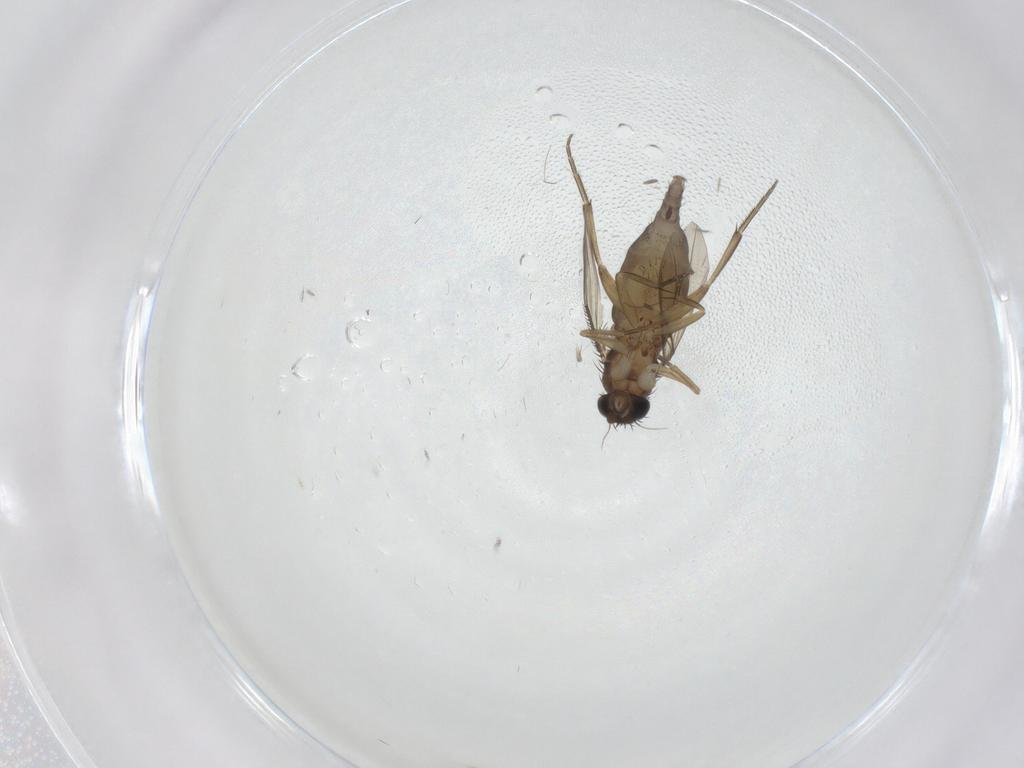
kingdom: Animalia
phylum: Arthropoda
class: Insecta
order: Diptera
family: Phoridae
